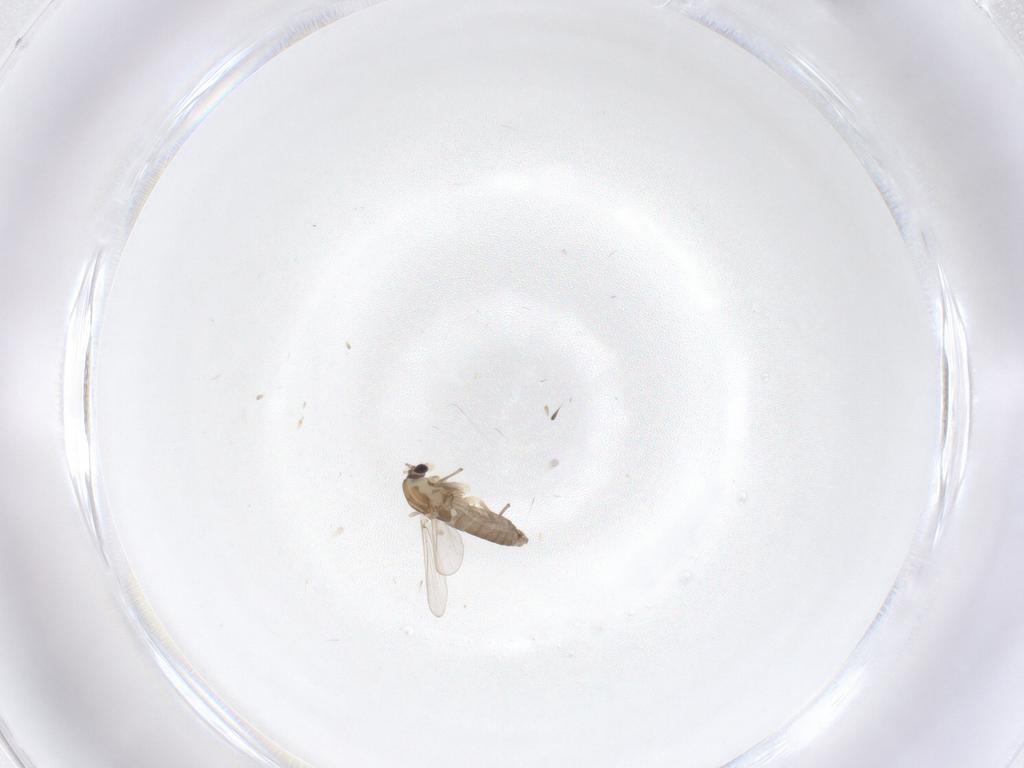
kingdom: Animalia
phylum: Arthropoda
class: Insecta
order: Diptera
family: Chironomidae
